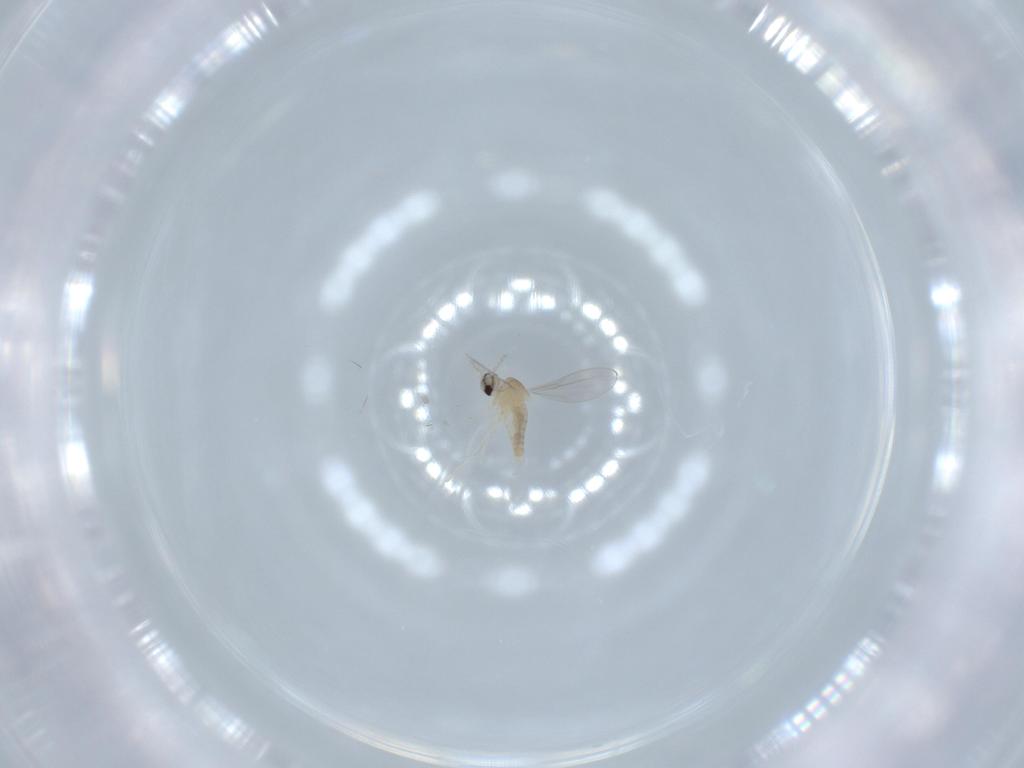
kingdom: Animalia
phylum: Arthropoda
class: Insecta
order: Diptera
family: Cecidomyiidae
